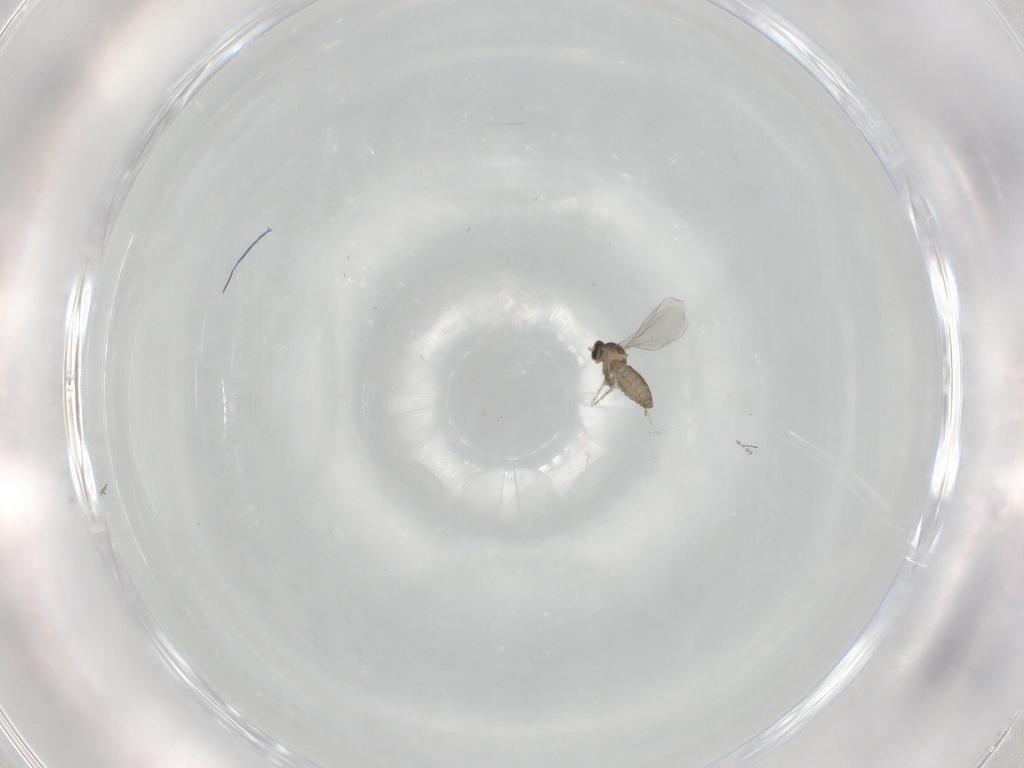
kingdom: Animalia
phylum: Arthropoda
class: Insecta
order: Diptera
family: Cecidomyiidae
